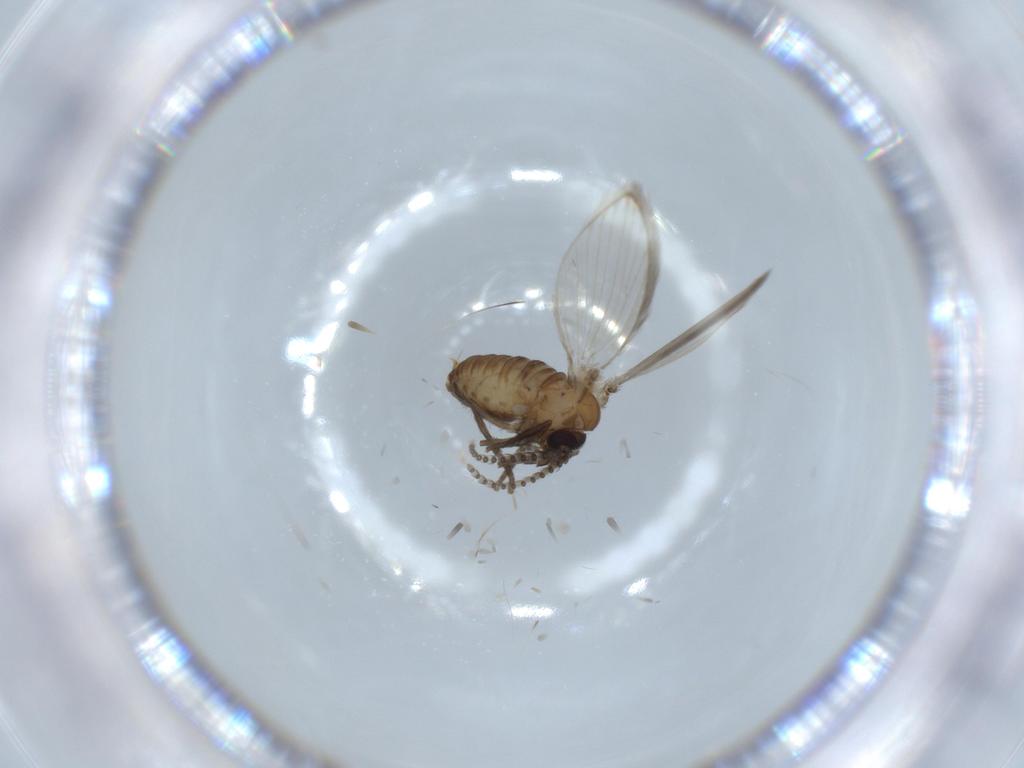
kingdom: Animalia
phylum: Arthropoda
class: Insecta
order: Diptera
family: Psychodidae
